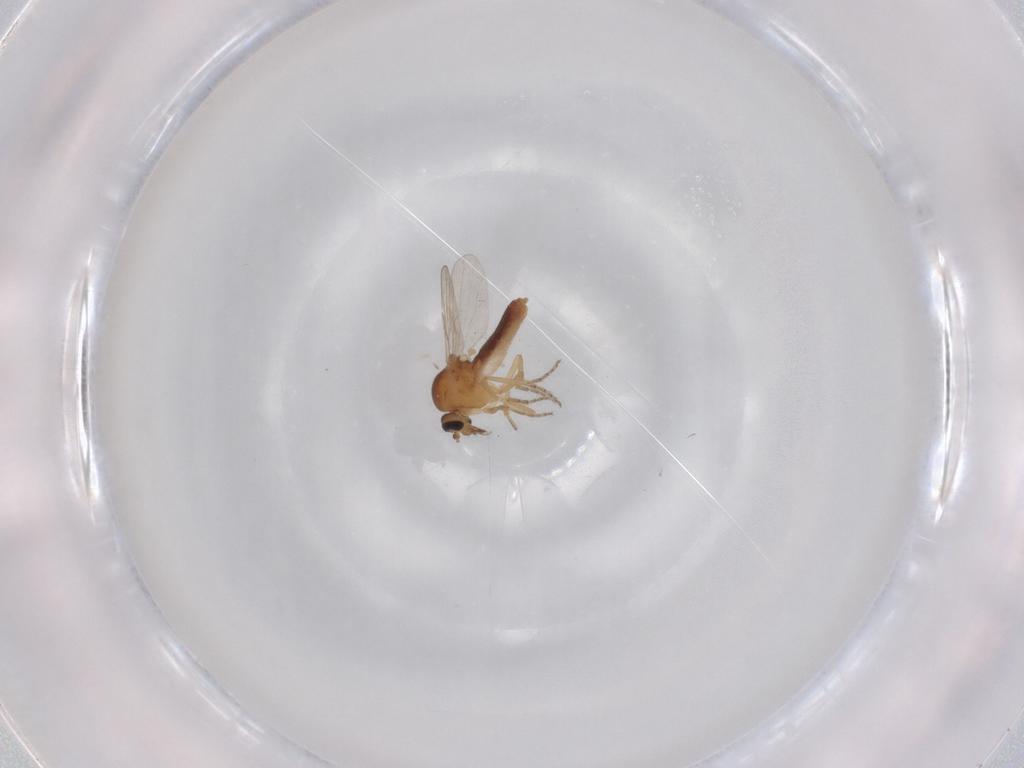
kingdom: Animalia
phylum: Arthropoda
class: Insecta
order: Diptera
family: Ceratopogonidae
